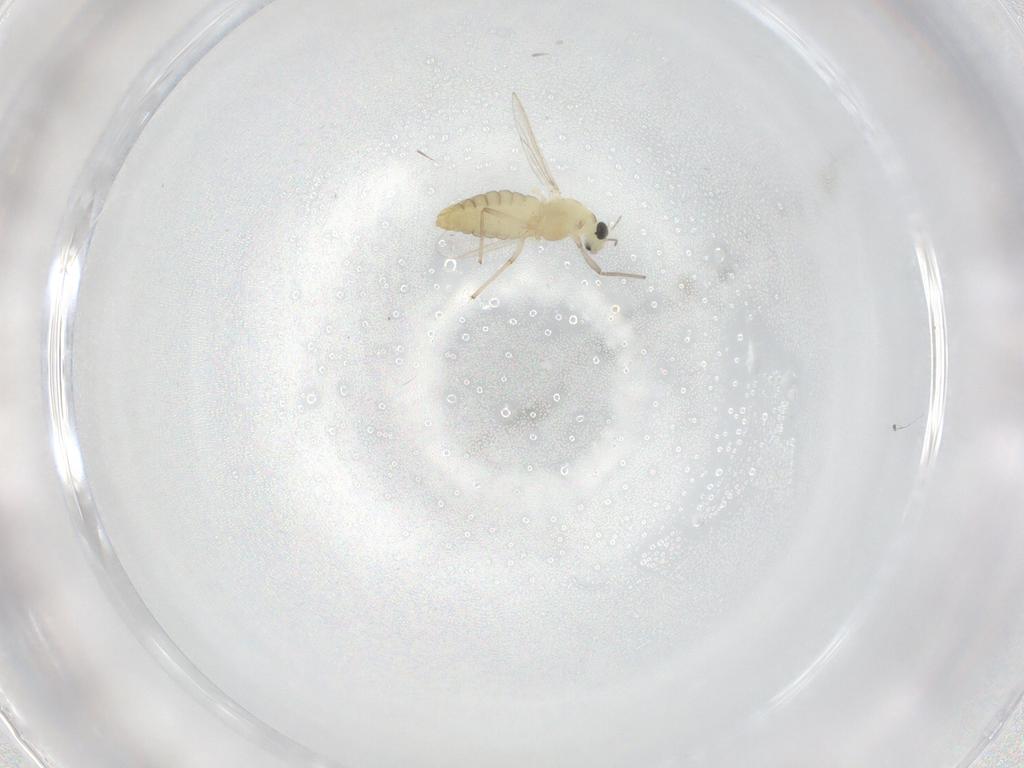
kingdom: Animalia
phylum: Arthropoda
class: Insecta
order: Diptera
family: Chironomidae
